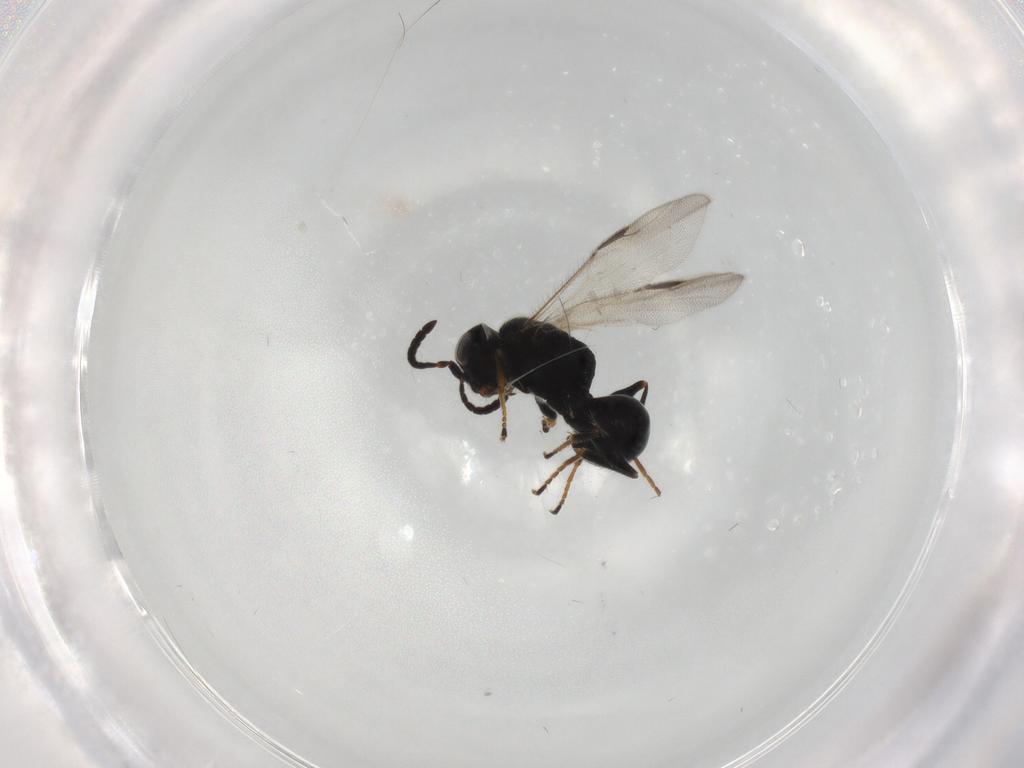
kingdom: Animalia
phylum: Arthropoda
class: Insecta
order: Hymenoptera
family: Dryinidae
